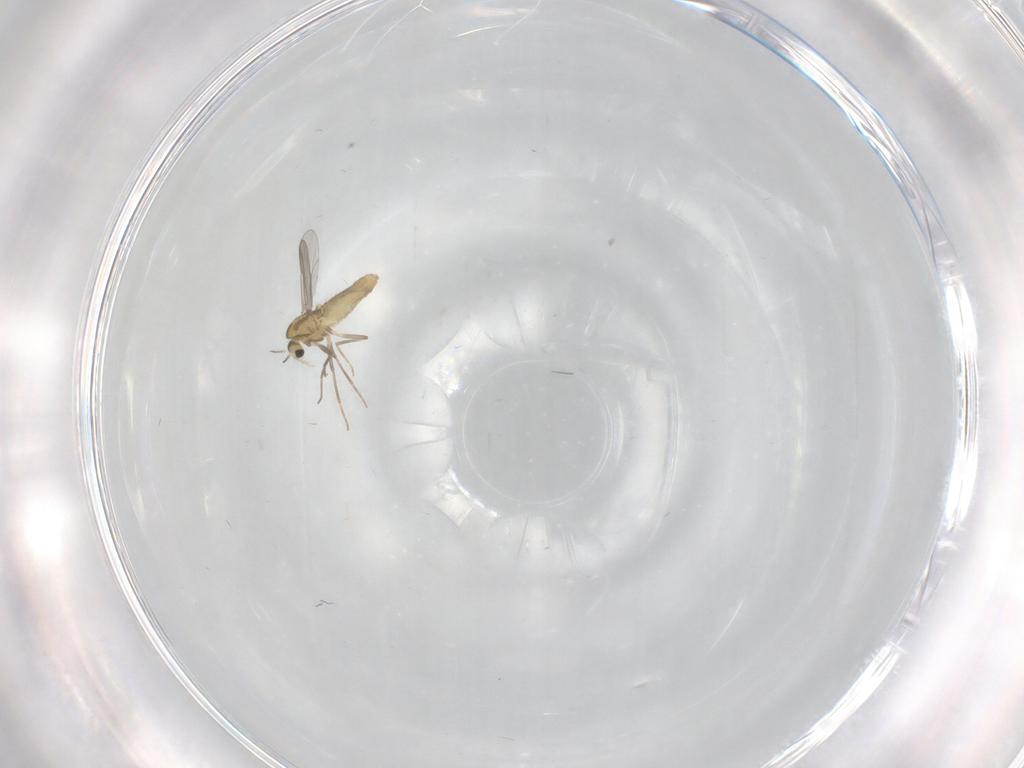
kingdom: Animalia
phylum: Arthropoda
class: Insecta
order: Diptera
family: Chironomidae
